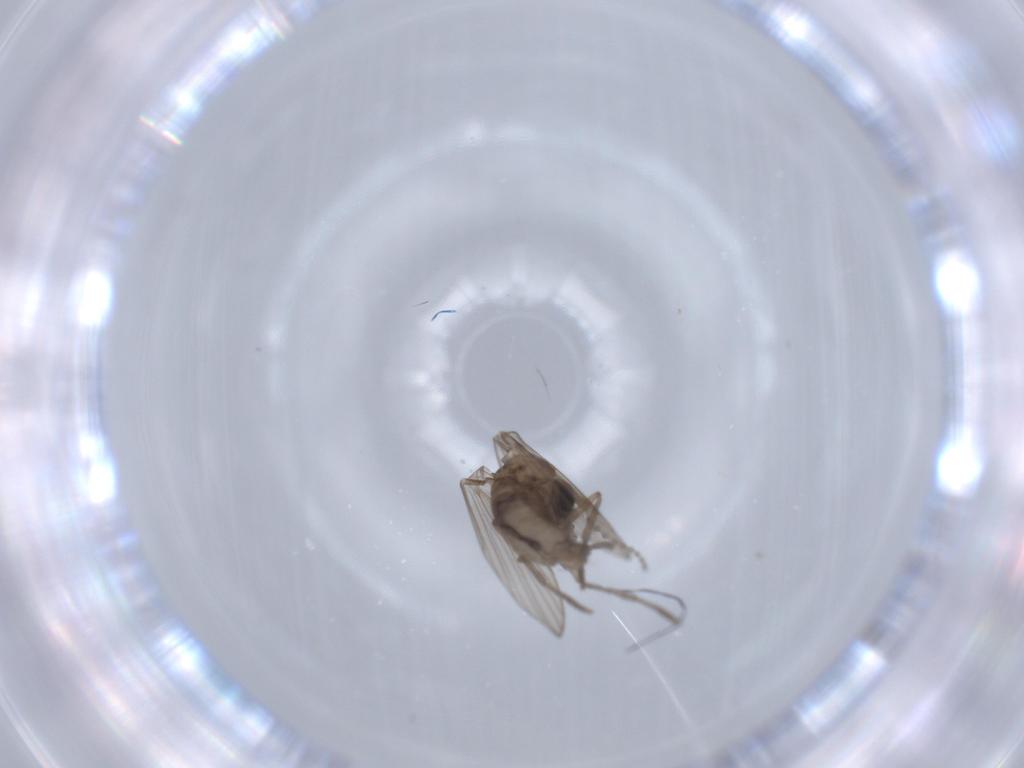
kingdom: Animalia
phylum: Arthropoda
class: Insecta
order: Diptera
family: Phoridae
